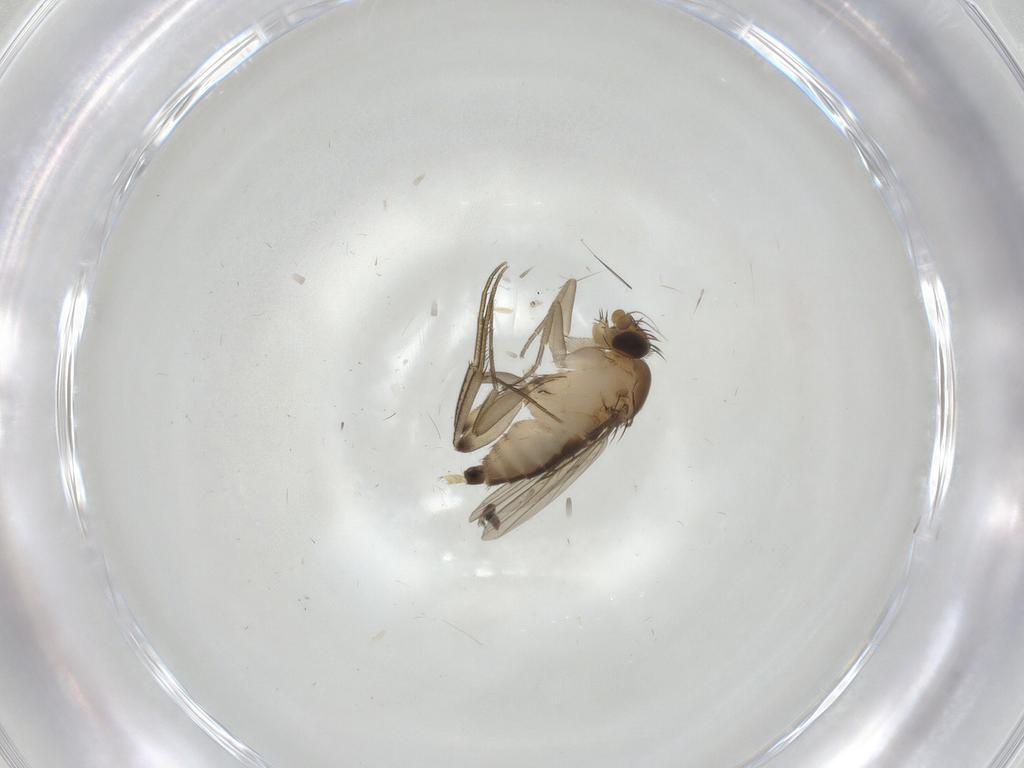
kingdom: Animalia
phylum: Arthropoda
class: Insecta
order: Diptera
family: Phoridae
